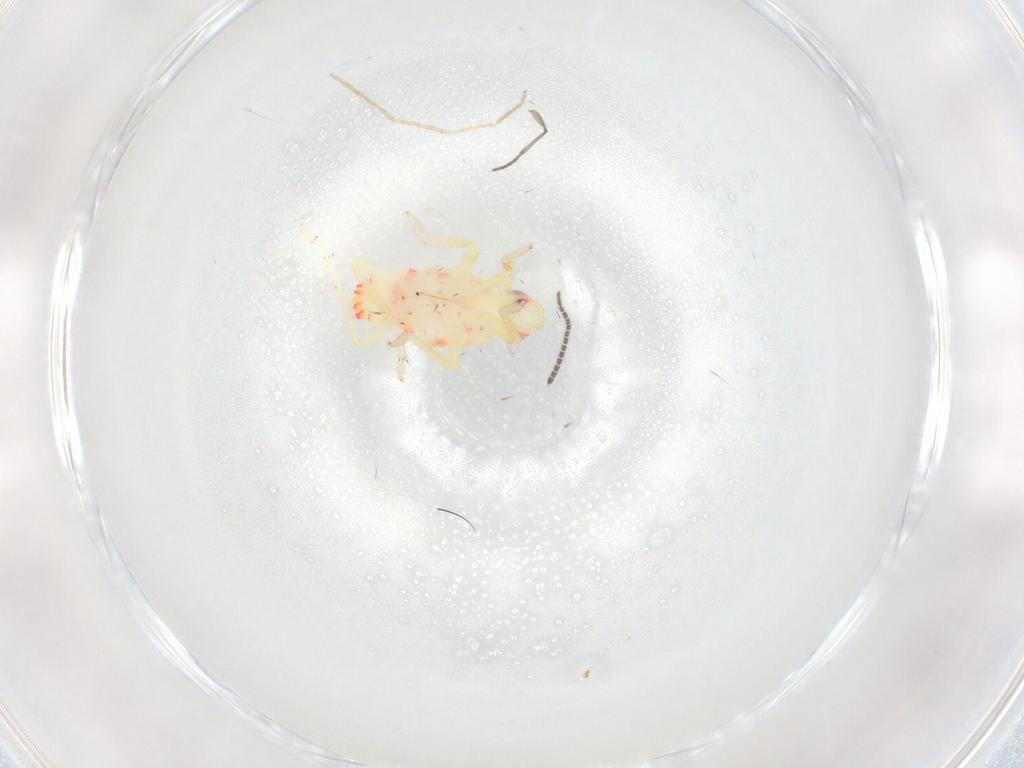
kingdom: Animalia
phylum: Arthropoda
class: Insecta
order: Hemiptera
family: Tropiduchidae
